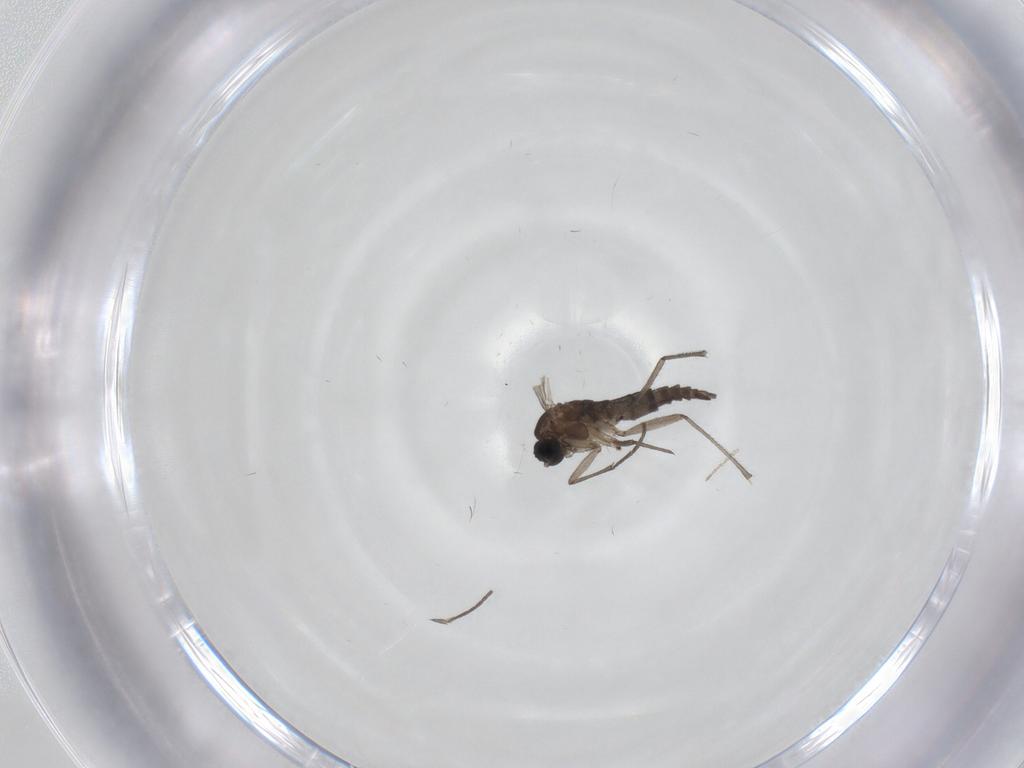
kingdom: Animalia
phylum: Arthropoda
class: Insecta
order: Diptera
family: Sciaridae
